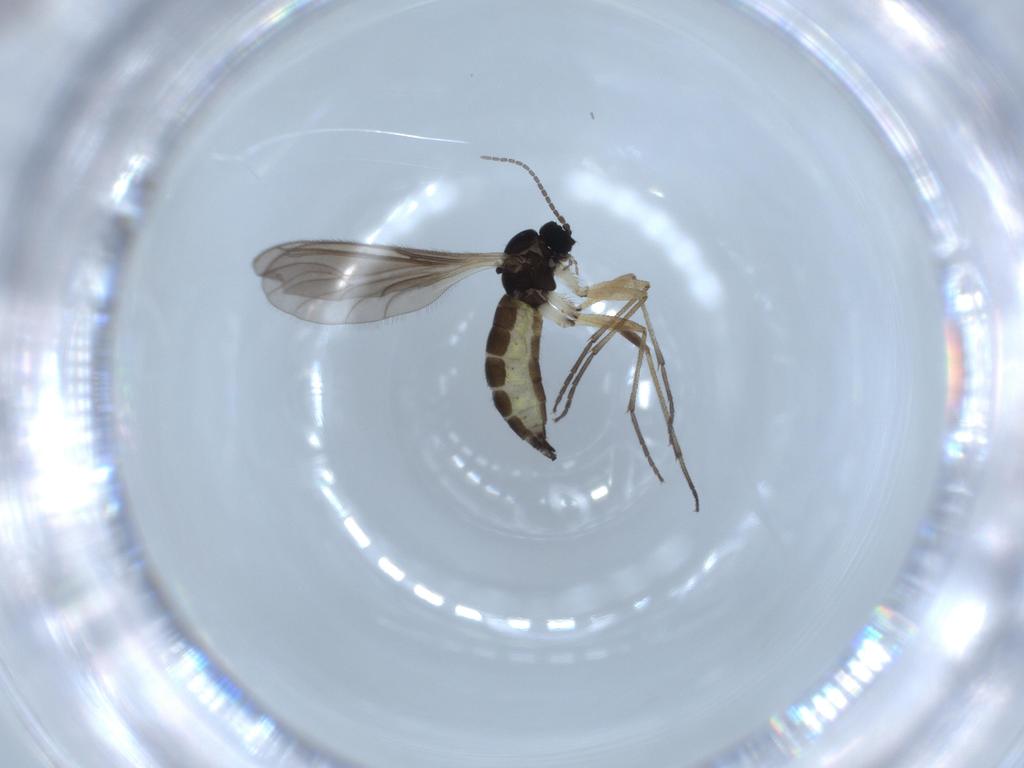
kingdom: Animalia
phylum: Arthropoda
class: Insecta
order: Diptera
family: Sciaridae
